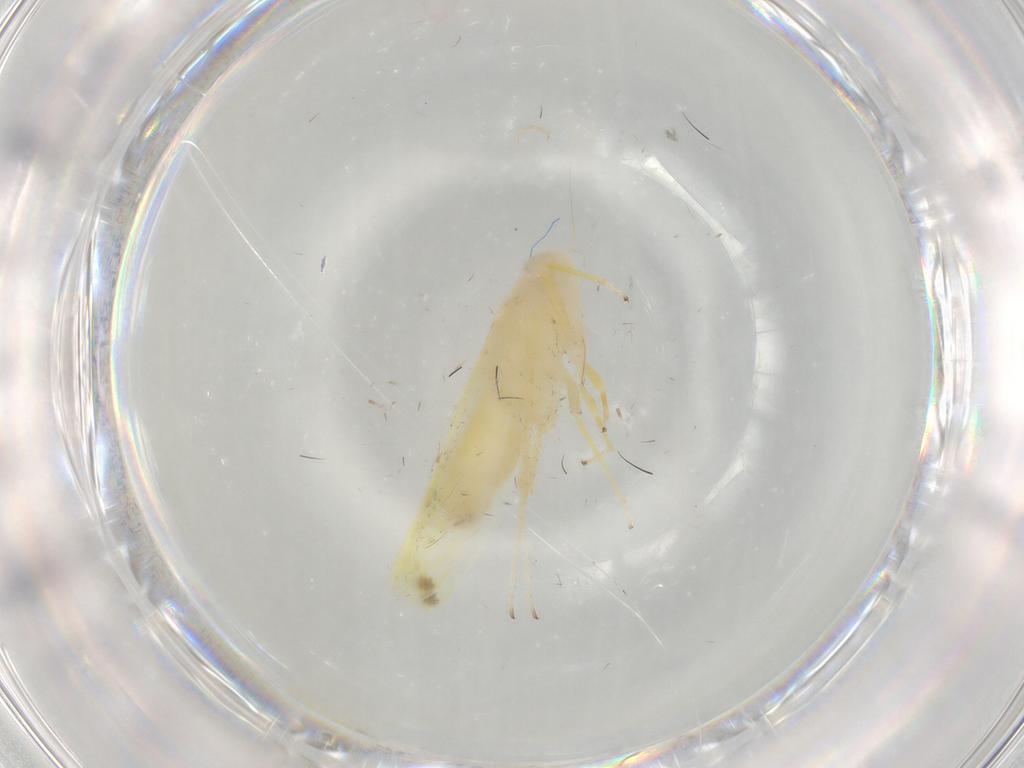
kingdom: Animalia
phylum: Arthropoda
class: Insecta
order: Hemiptera
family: Cicadellidae
